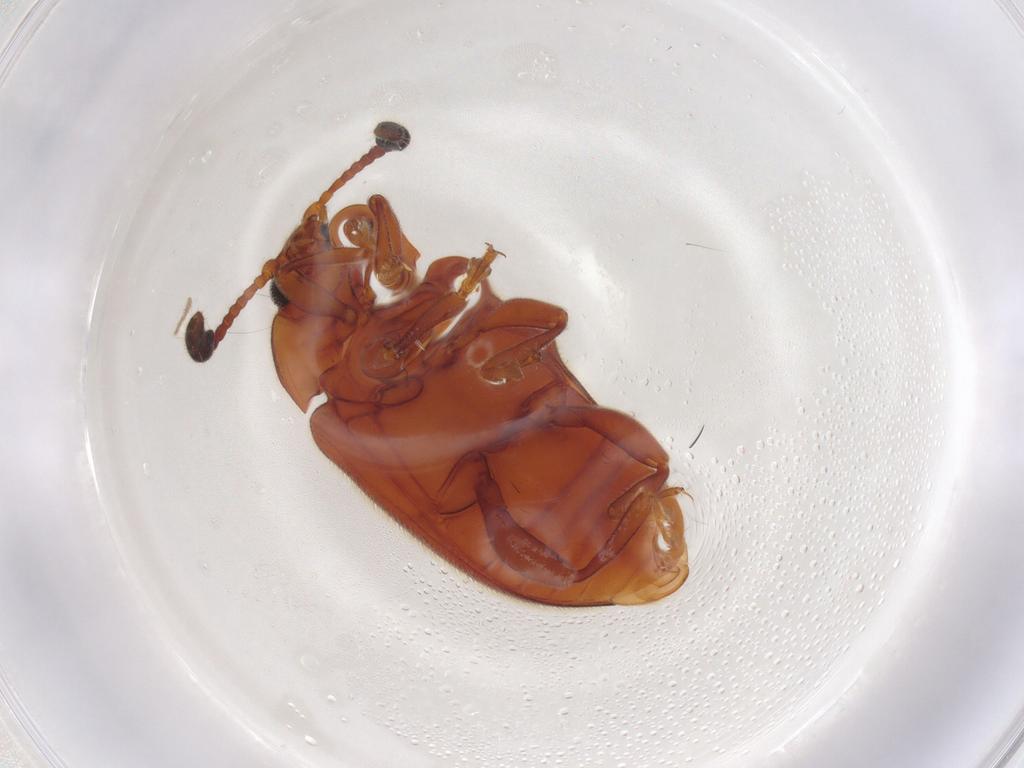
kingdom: Animalia
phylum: Arthropoda
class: Insecta
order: Coleoptera
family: Endomychidae
